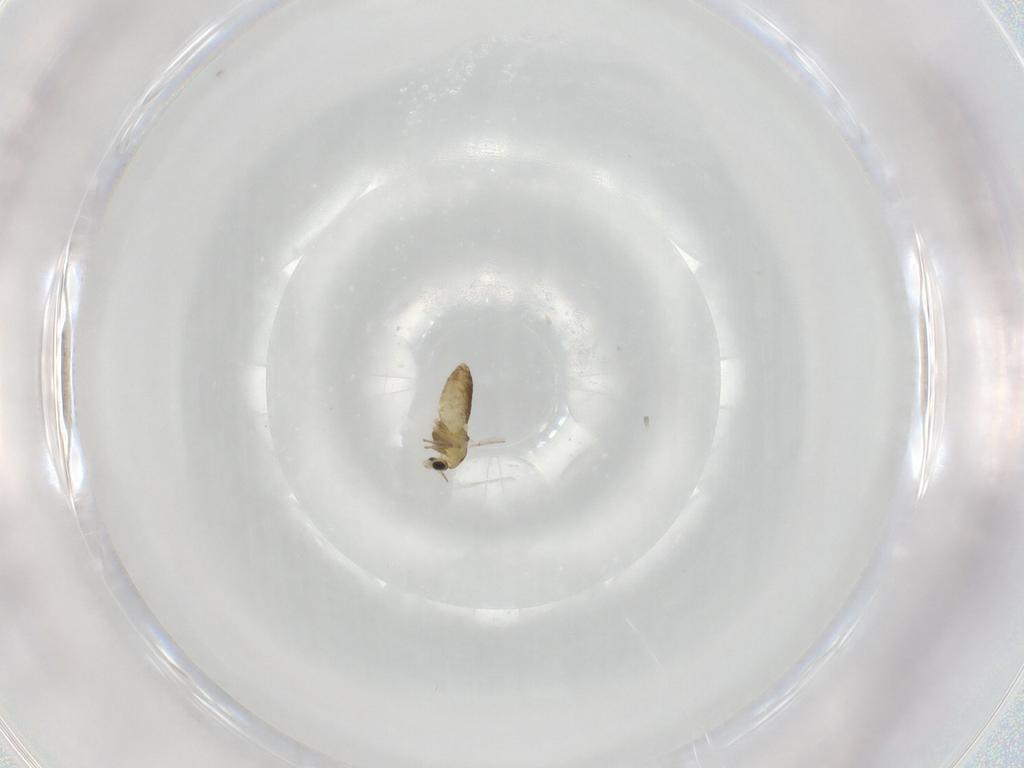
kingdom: Animalia
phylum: Arthropoda
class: Insecta
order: Diptera
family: Chironomidae
